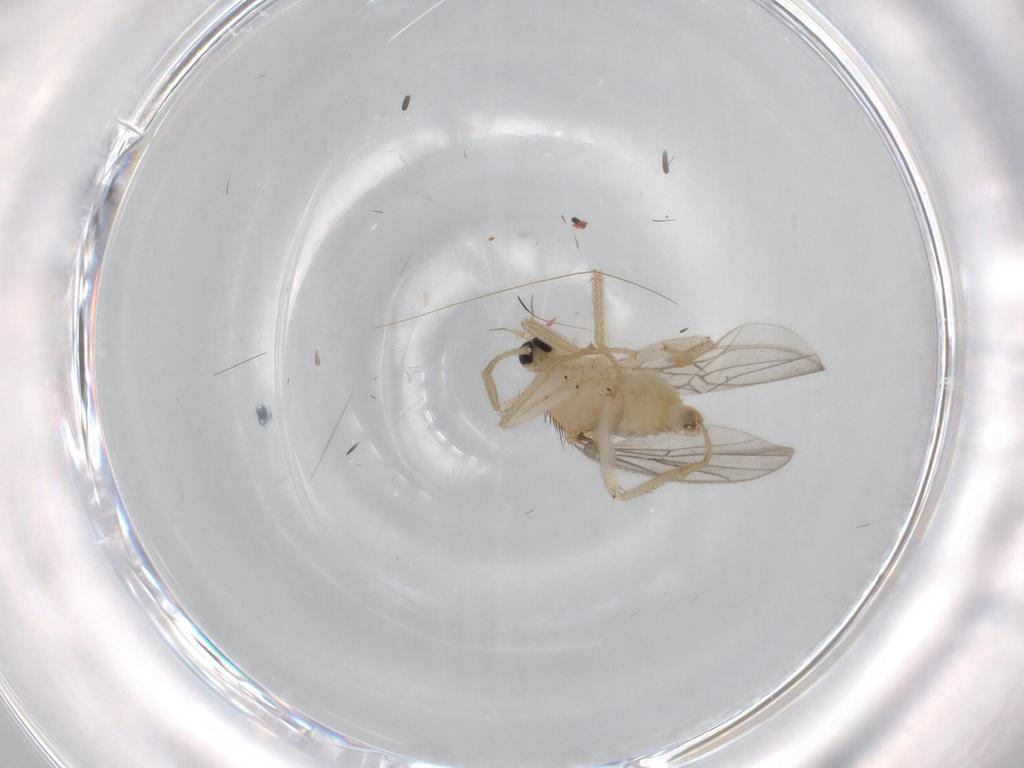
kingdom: Animalia
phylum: Arthropoda
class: Insecta
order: Diptera
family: Hybotidae
